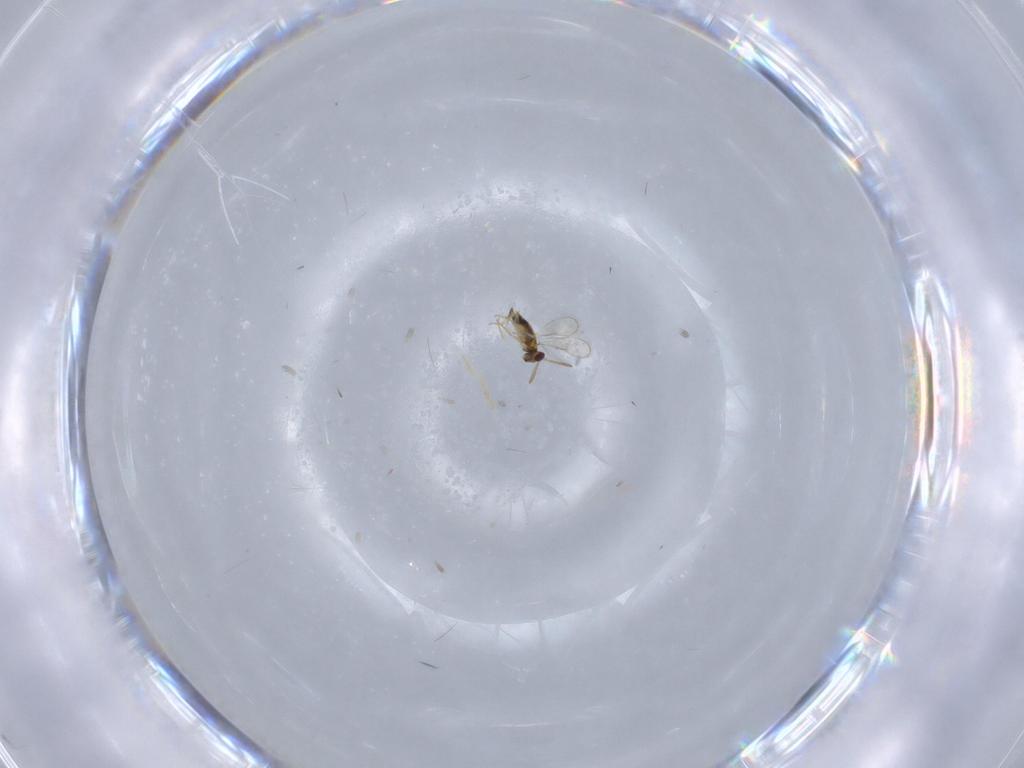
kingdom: Animalia
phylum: Arthropoda
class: Insecta
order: Hymenoptera
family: Aphelinidae
